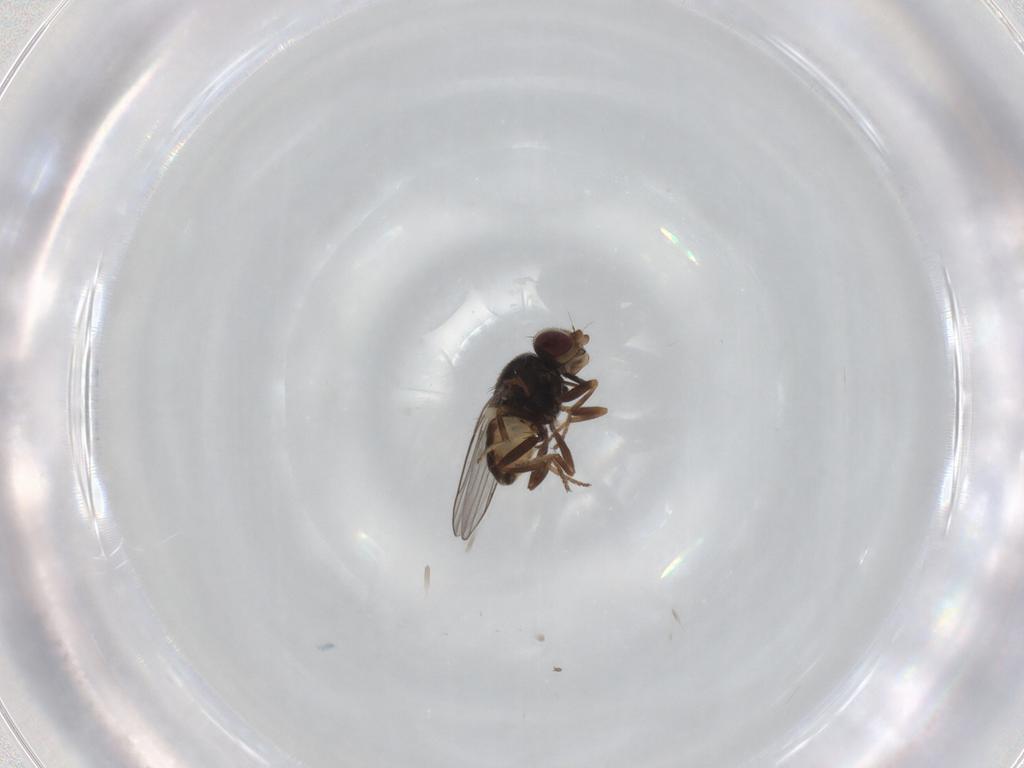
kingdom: Animalia
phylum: Arthropoda
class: Insecta
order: Diptera
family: Chloropidae
